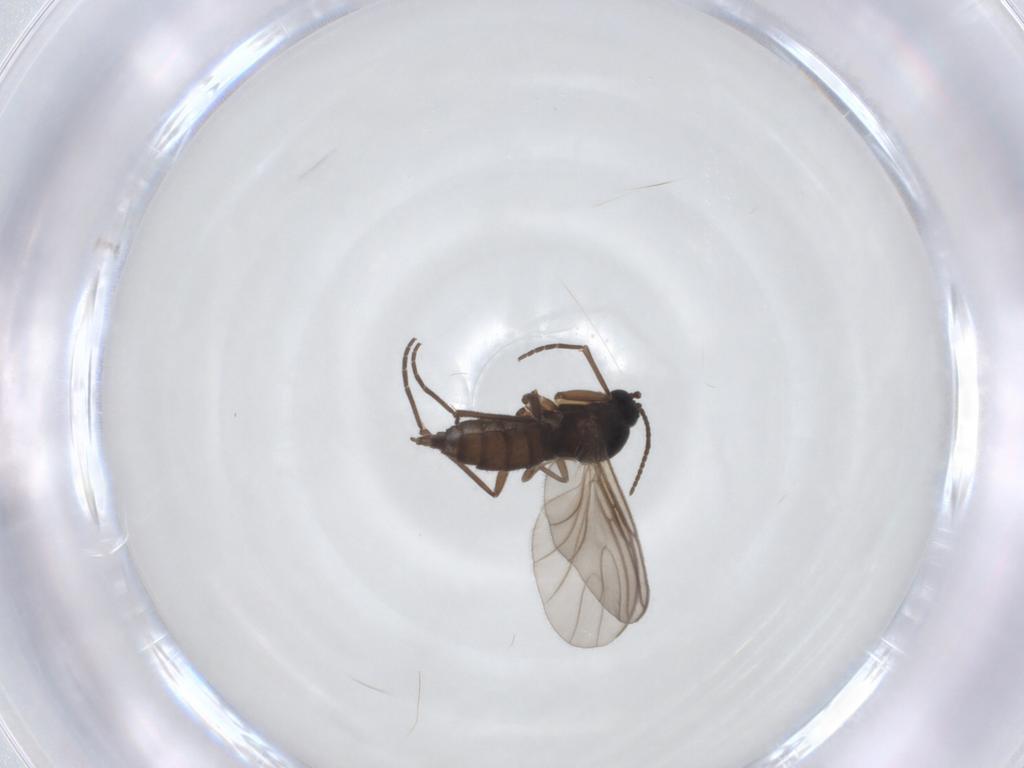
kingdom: Animalia
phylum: Arthropoda
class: Insecta
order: Diptera
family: Sciaridae
